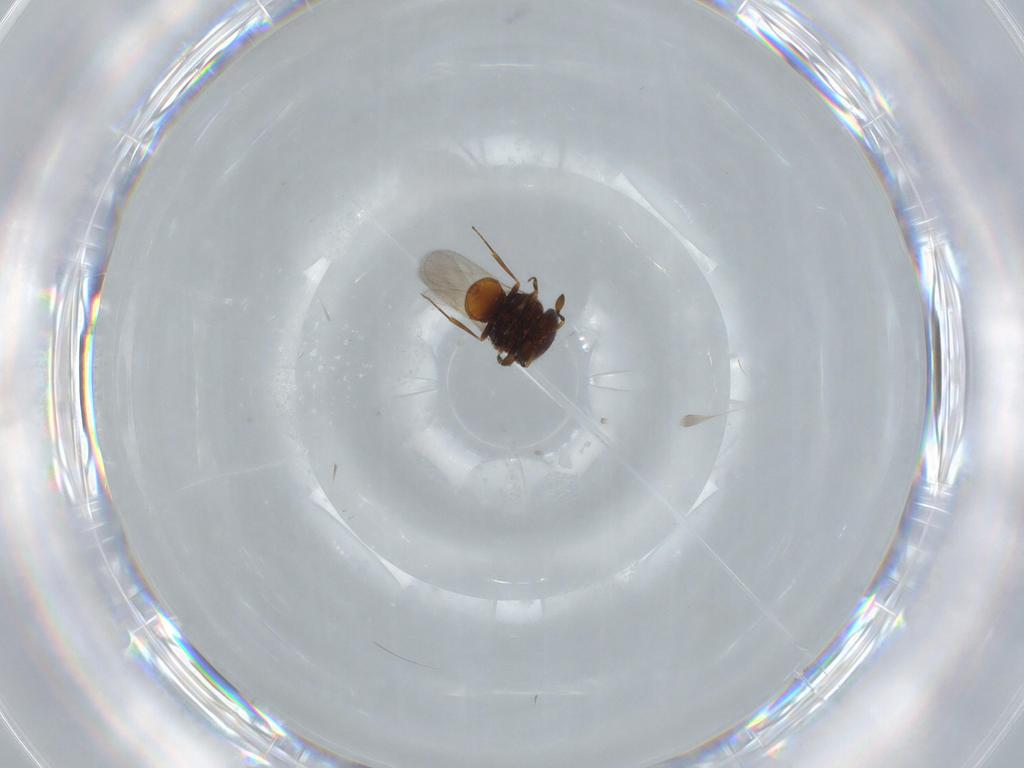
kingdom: Animalia
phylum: Arthropoda
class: Insecta
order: Hymenoptera
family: Scelionidae
